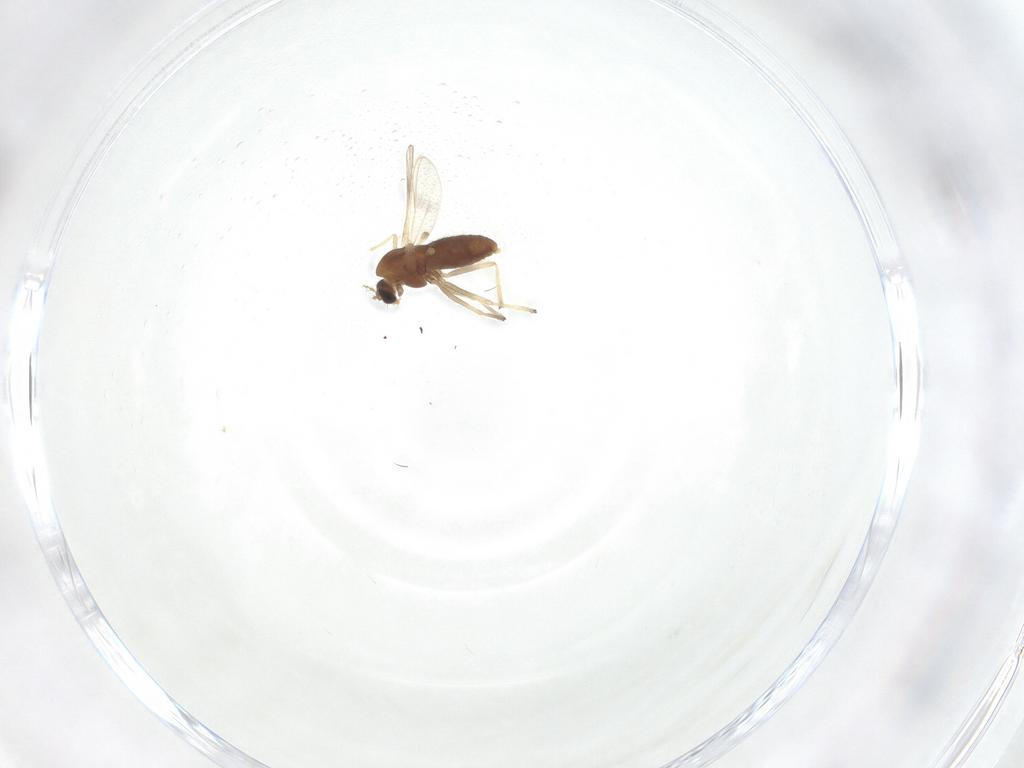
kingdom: Animalia
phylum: Arthropoda
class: Insecta
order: Diptera
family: Chironomidae
